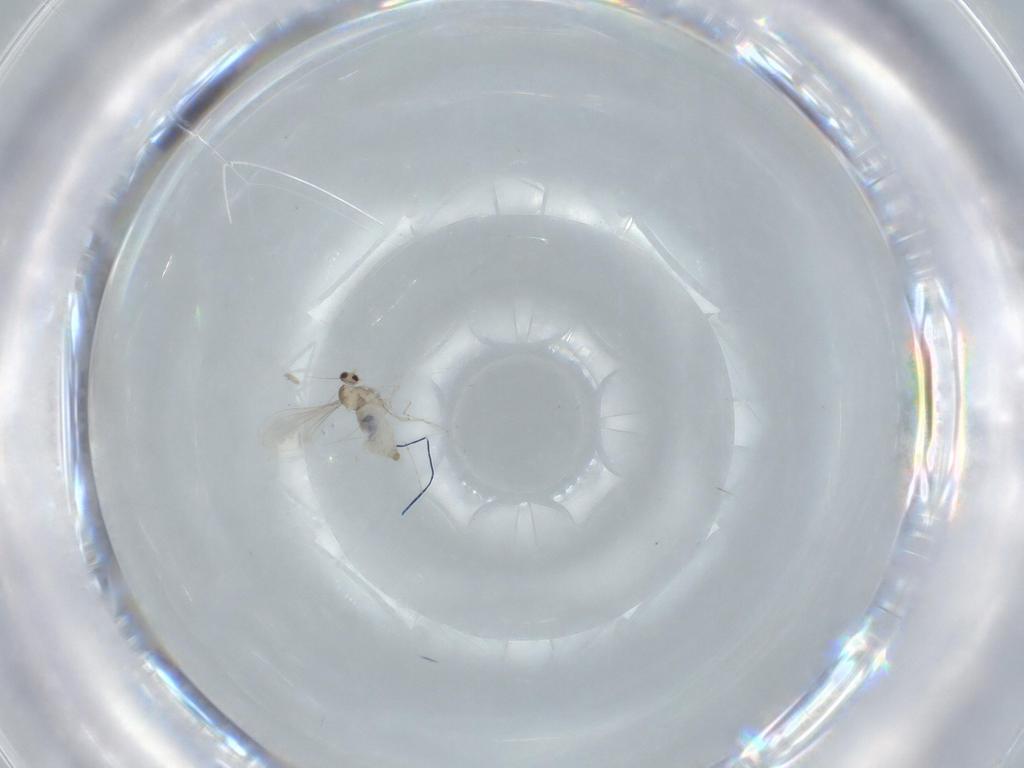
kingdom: Animalia
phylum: Arthropoda
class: Insecta
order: Diptera
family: Cecidomyiidae
